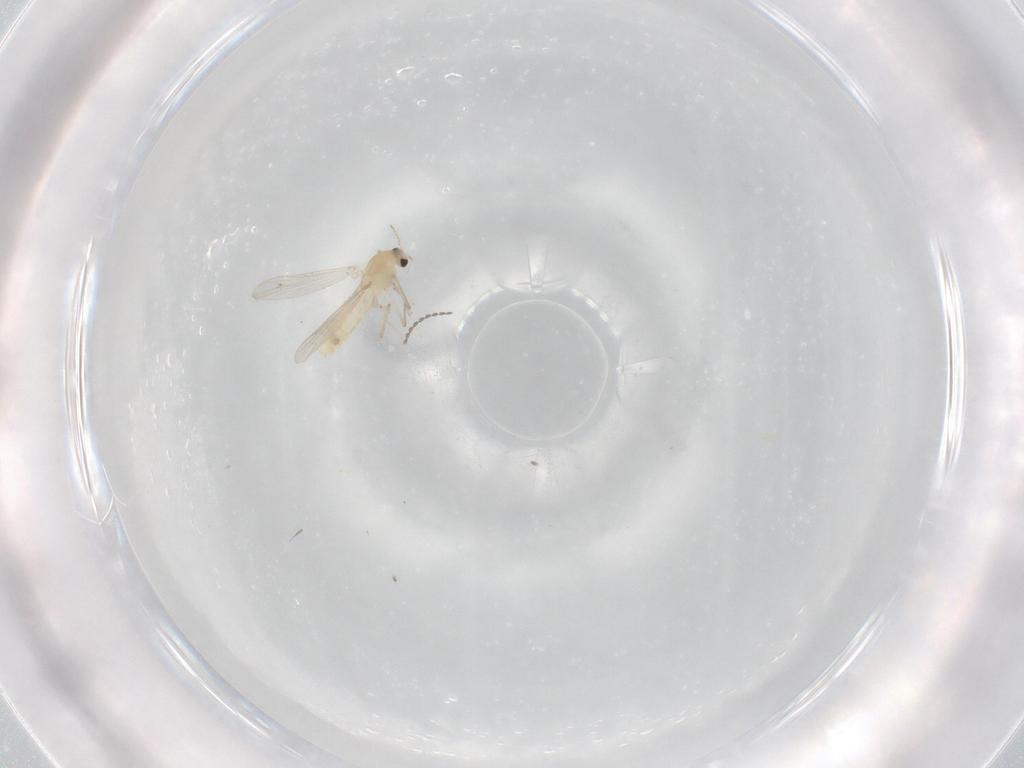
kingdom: Animalia
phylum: Arthropoda
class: Insecta
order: Diptera
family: Chironomidae
